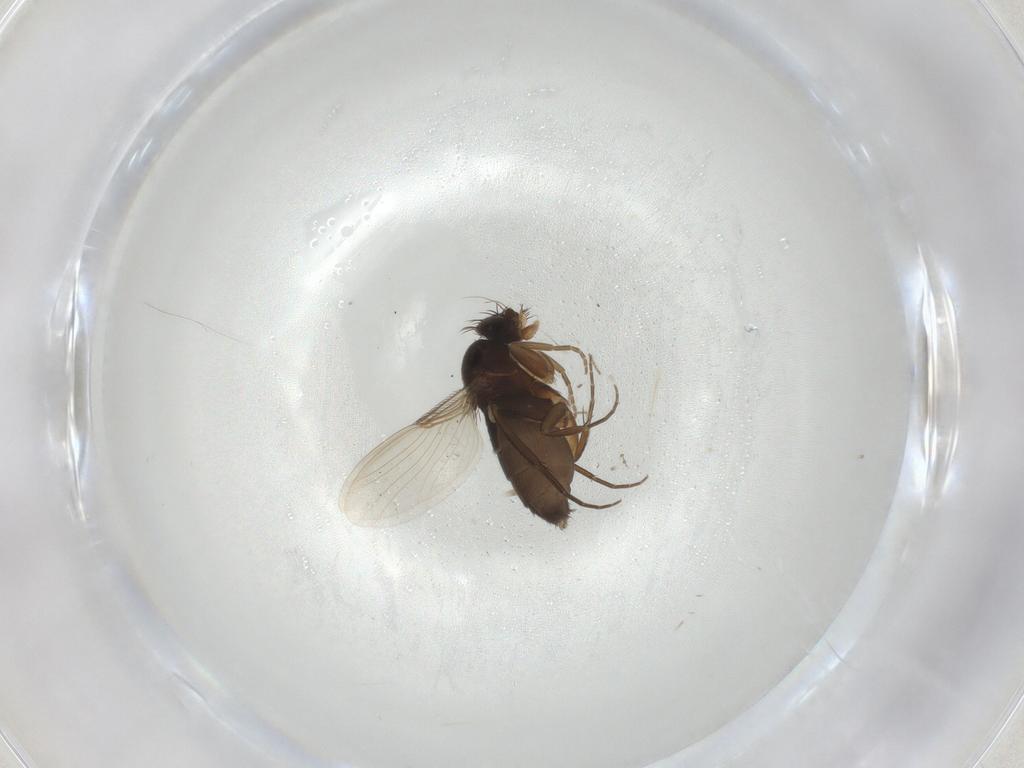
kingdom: Animalia
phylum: Arthropoda
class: Insecta
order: Diptera
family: Phoridae
